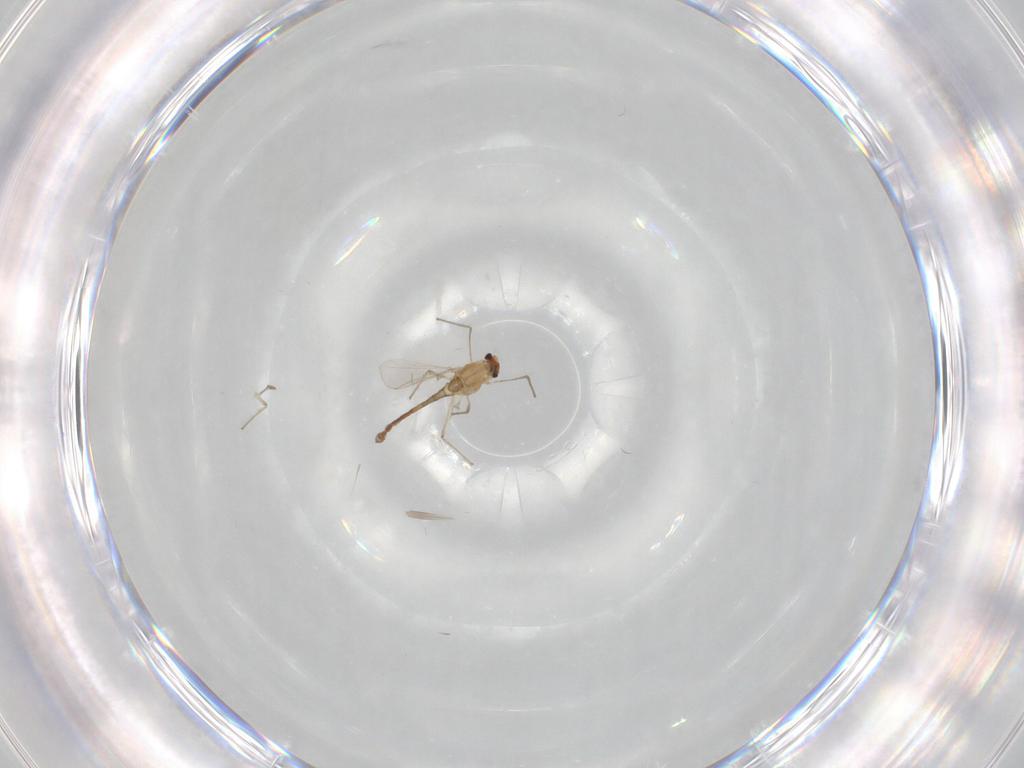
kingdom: Animalia
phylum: Arthropoda
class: Insecta
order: Diptera
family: Chironomidae
